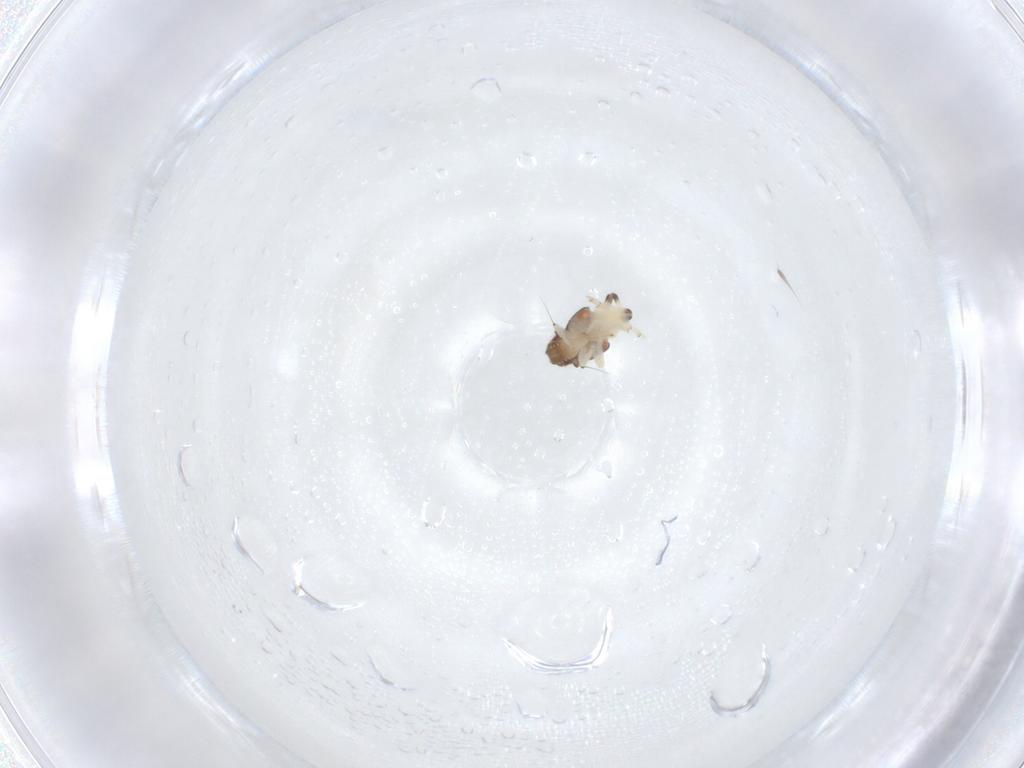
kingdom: Animalia
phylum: Arthropoda
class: Insecta
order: Hemiptera
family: Nogodinidae
